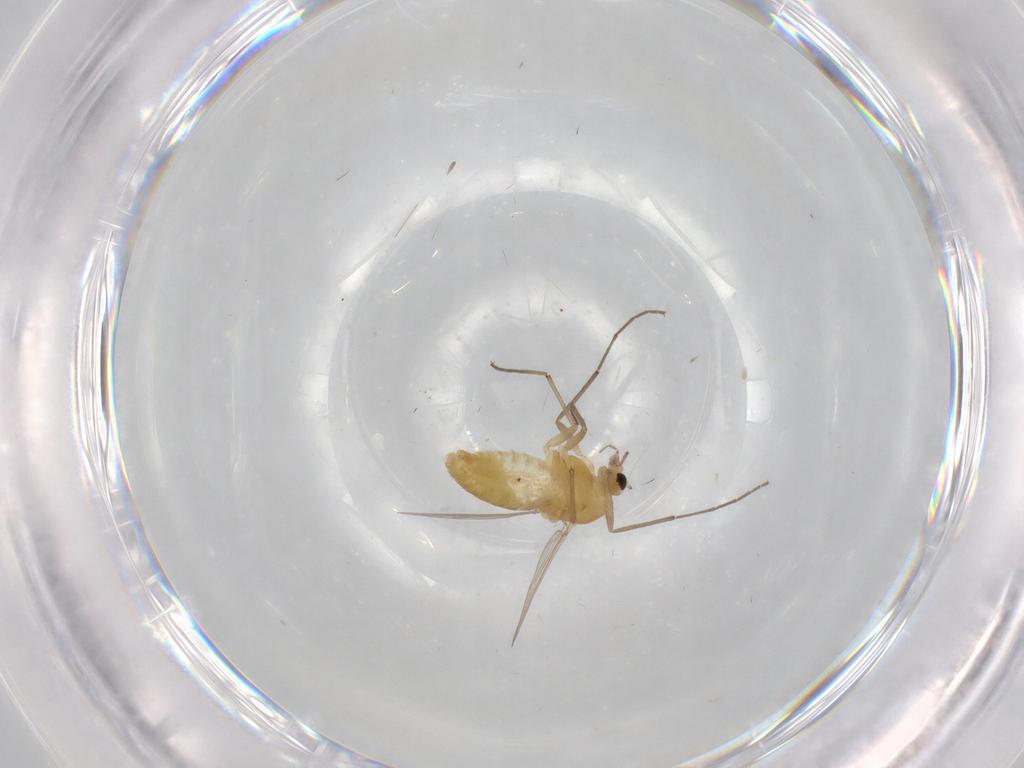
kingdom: Animalia
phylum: Arthropoda
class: Insecta
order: Diptera
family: Chironomidae
